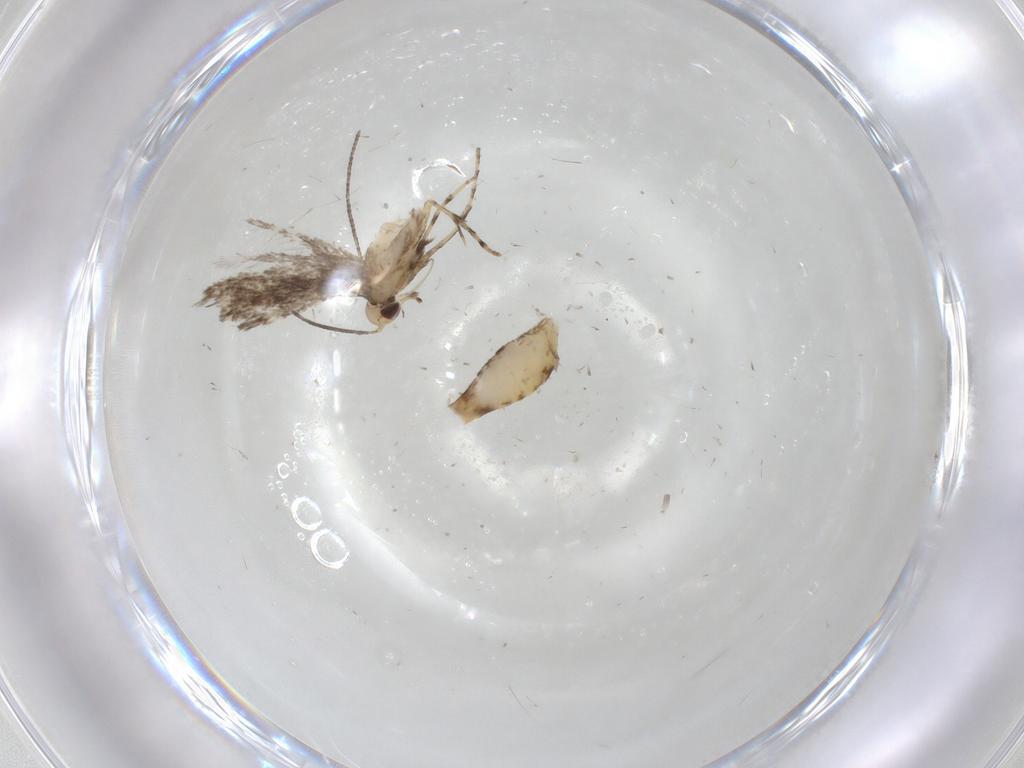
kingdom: Animalia
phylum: Arthropoda
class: Insecta
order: Lepidoptera
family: Gracillariidae
